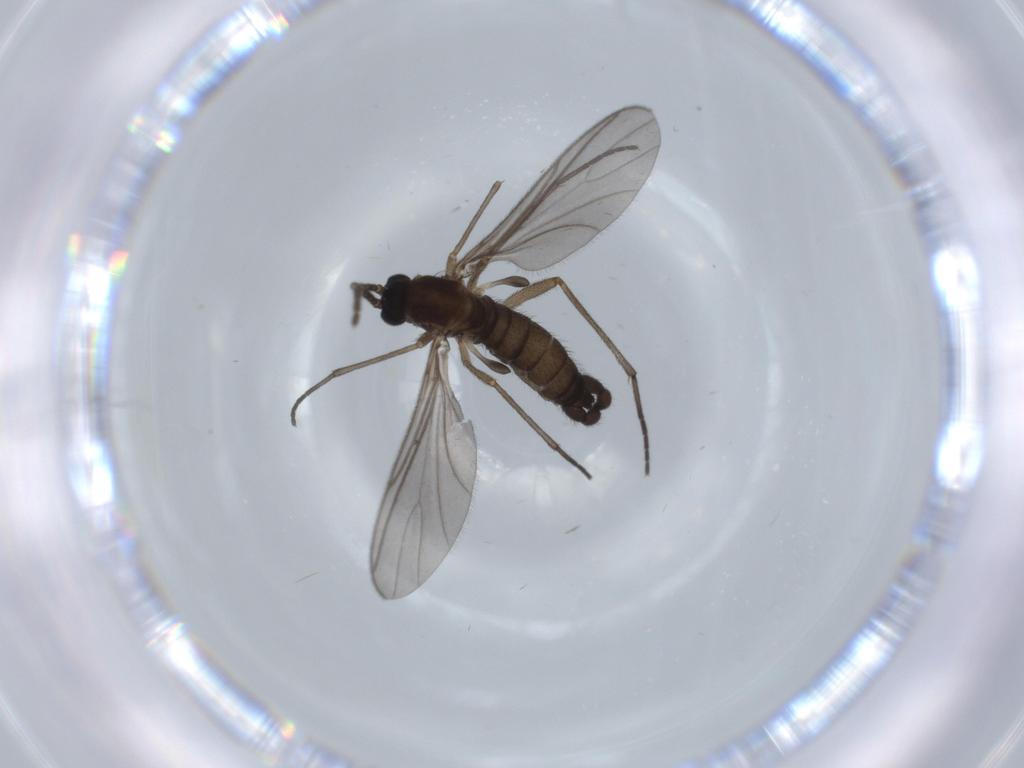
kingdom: Animalia
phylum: Arthropoda
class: Insecta
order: Diptera
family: Sciaridae
